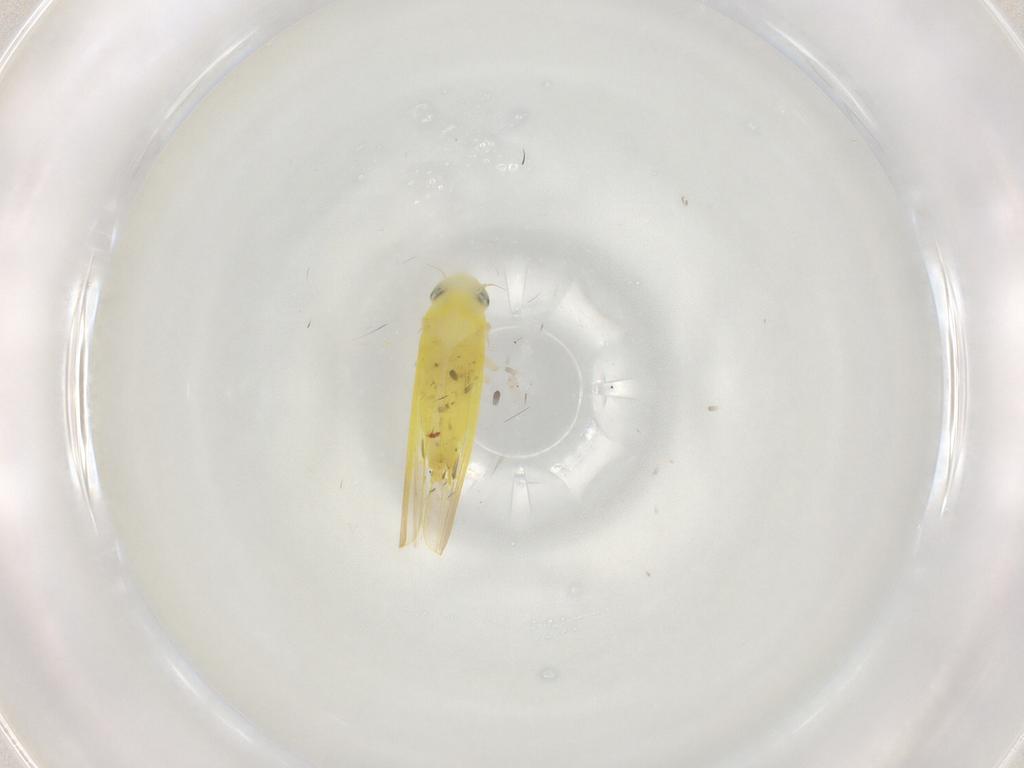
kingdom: Animalia
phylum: Arthropoda
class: Insecta
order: Hemiptera
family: Cicadellidae
